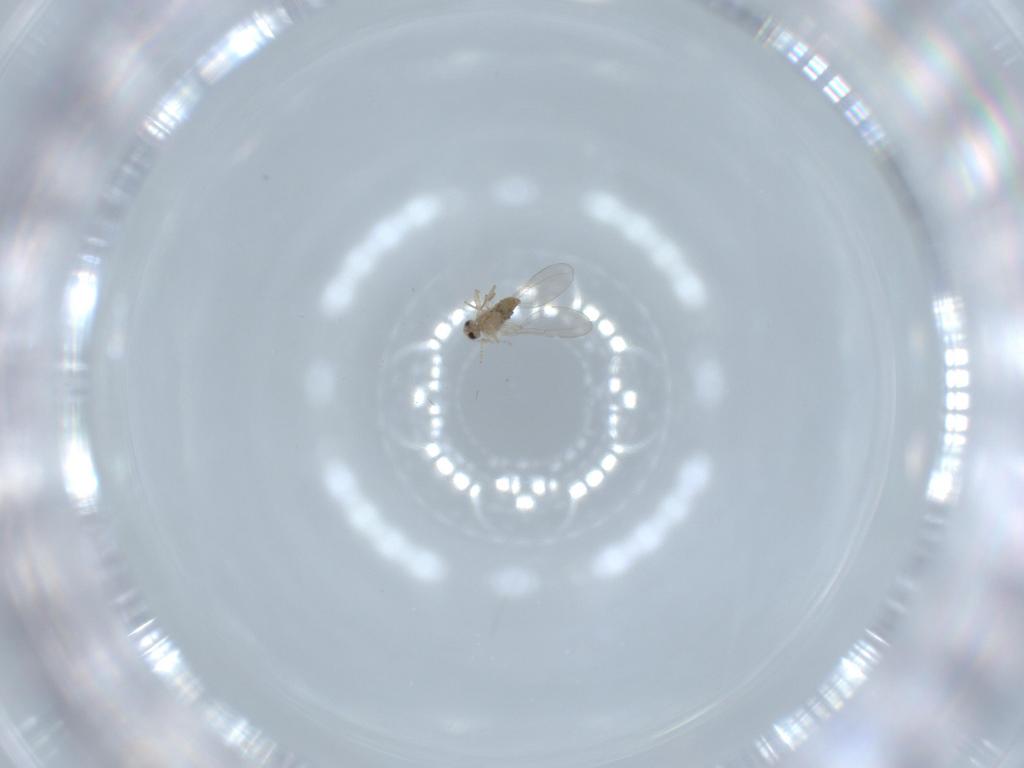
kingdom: Animalia
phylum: Arthropoda
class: Insecta
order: Diptera
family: Cecidomyiidae
